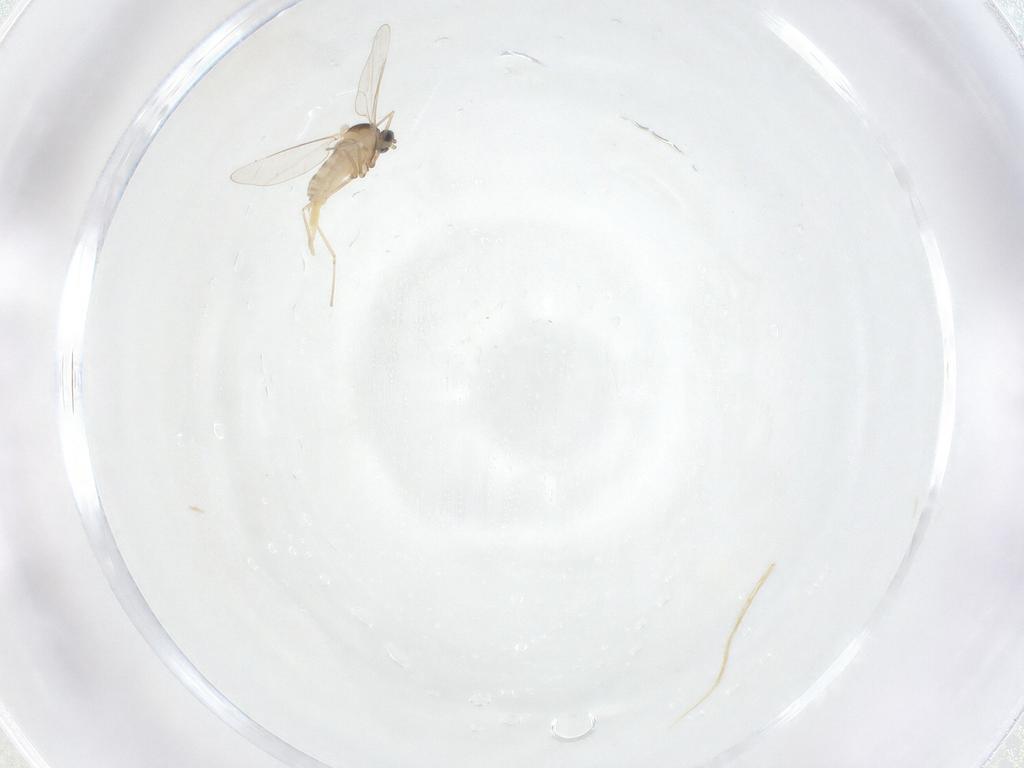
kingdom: Animalia
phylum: Arthropoda
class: Insecta
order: Diptera
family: Cecidomyiidae
